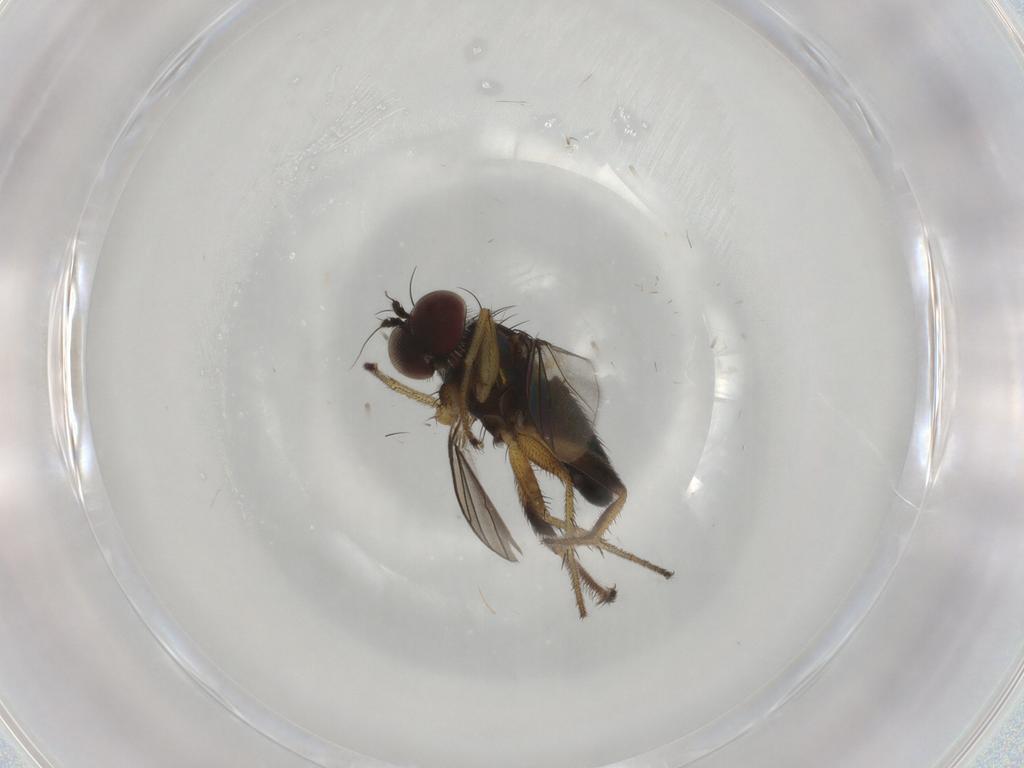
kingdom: Animalia
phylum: Arthropoda
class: Insecta
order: Diptera
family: Dolichopodidae
